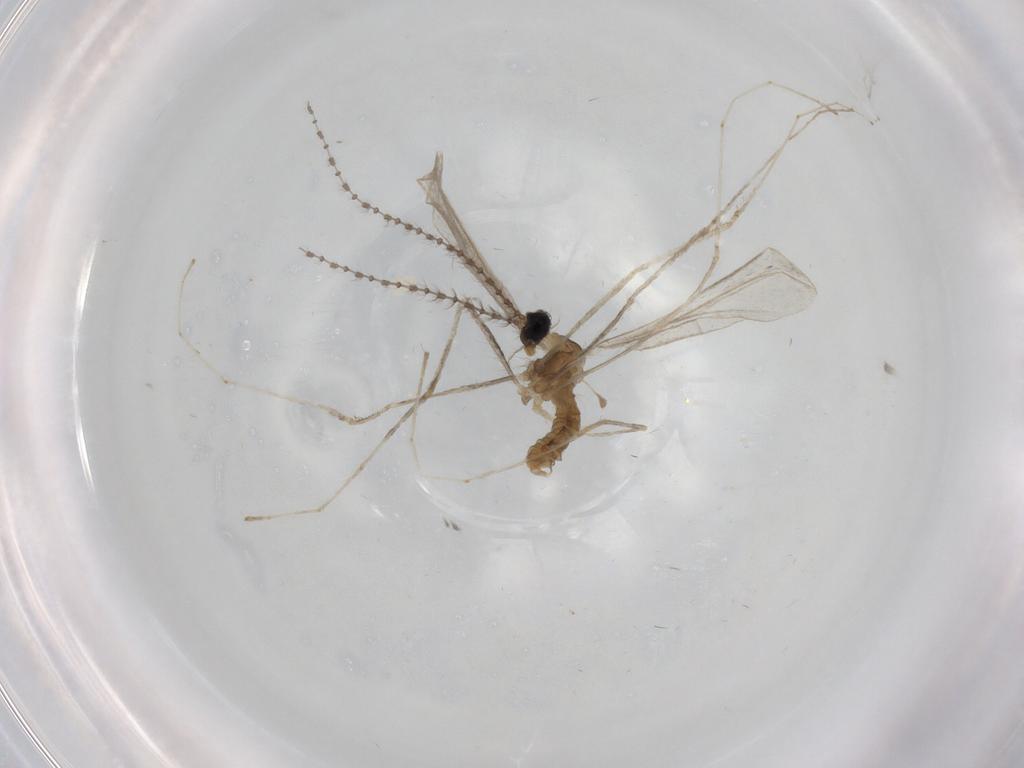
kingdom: Animalia
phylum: Arthropoda
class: Insecta
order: Diptera
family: Cecidomyiidae
